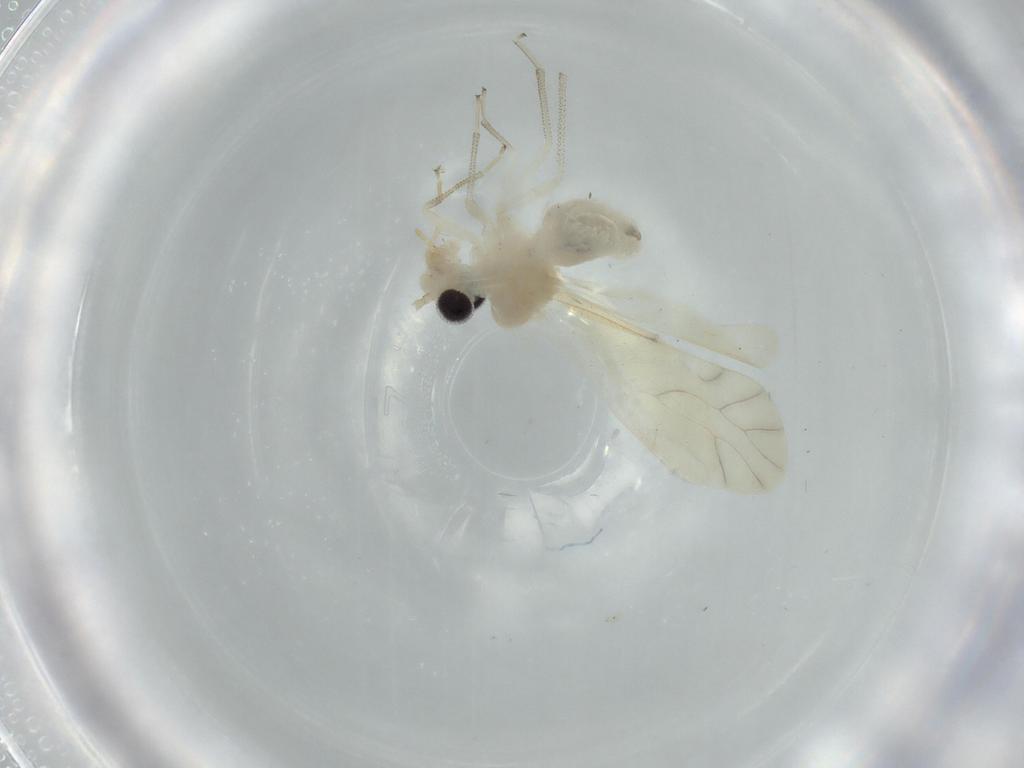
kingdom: Animalia
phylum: Arthropoda
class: Insecta
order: Psocodea
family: Caeciliusidae
